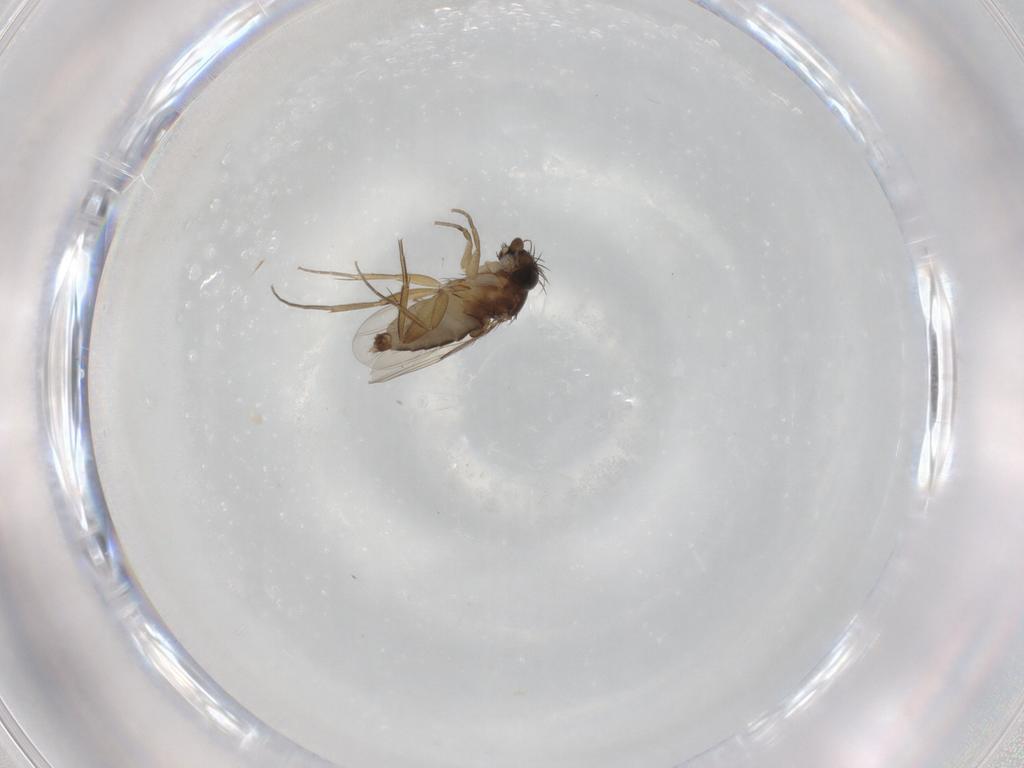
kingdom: Animalia
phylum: Arthropoda
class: Insecta
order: Diptera
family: Phoridae
